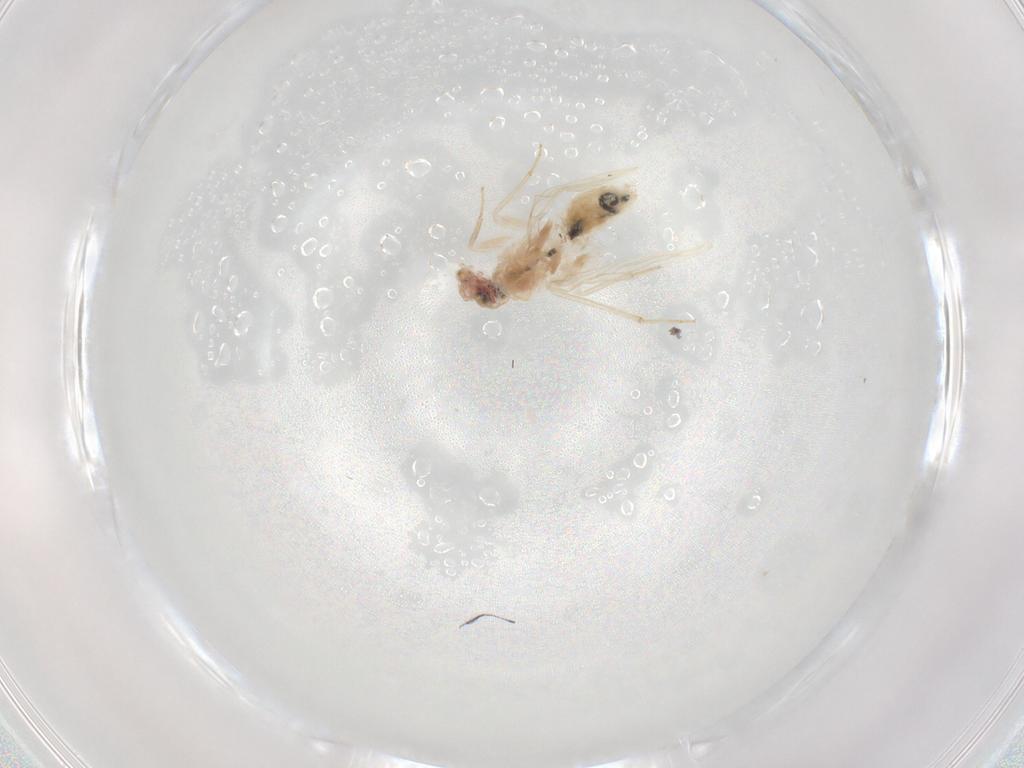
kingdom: Animalia
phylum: Arthropoda
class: Insecta
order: Psocodea
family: Lepidopsocidae
